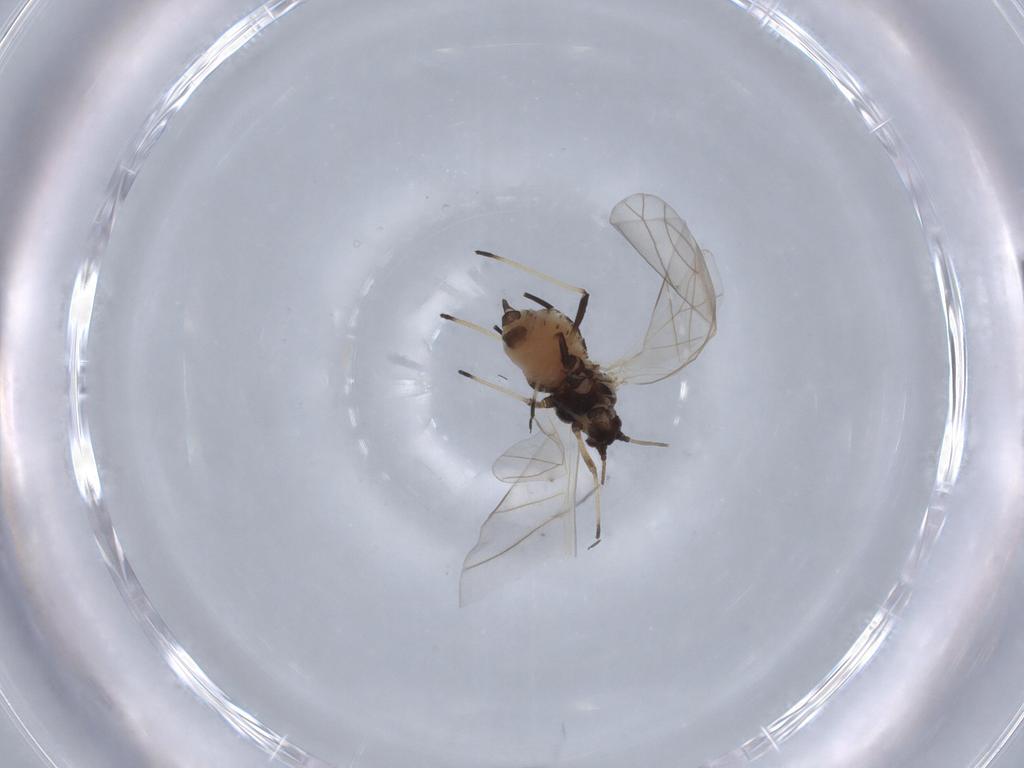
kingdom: Animalia
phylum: Arthropoda
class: Insecta
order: Hemiptera
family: Aphididae
